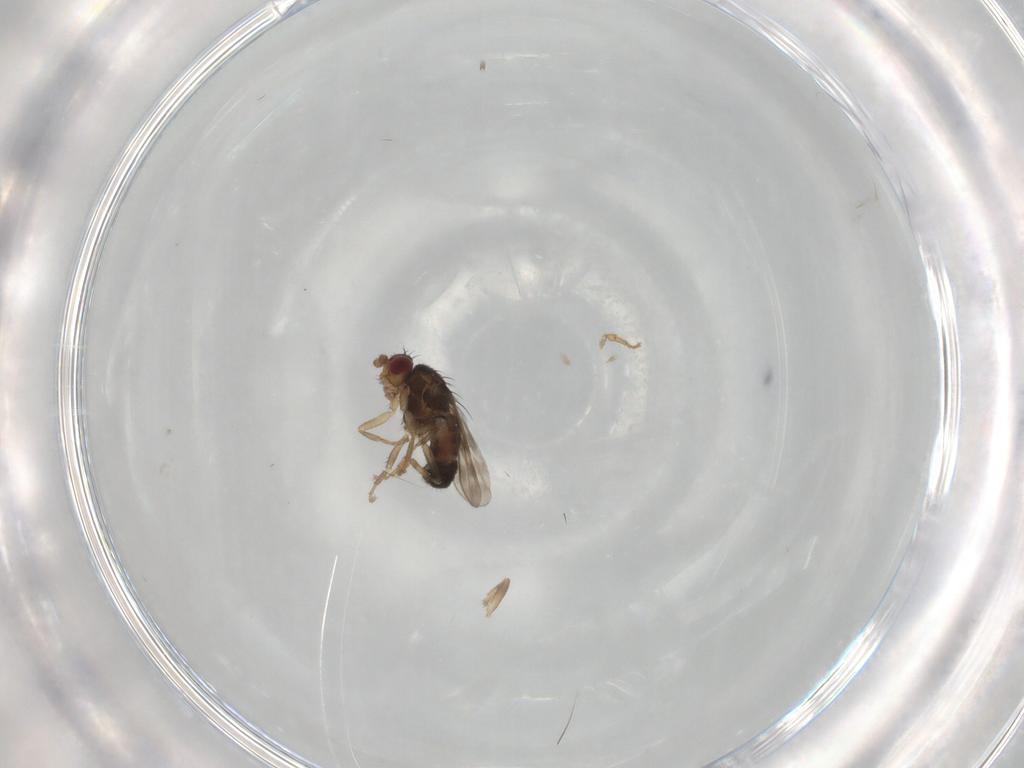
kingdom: Animalia
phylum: Arthropoda
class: Insecta
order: Diptera
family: Sphaeroceridae
